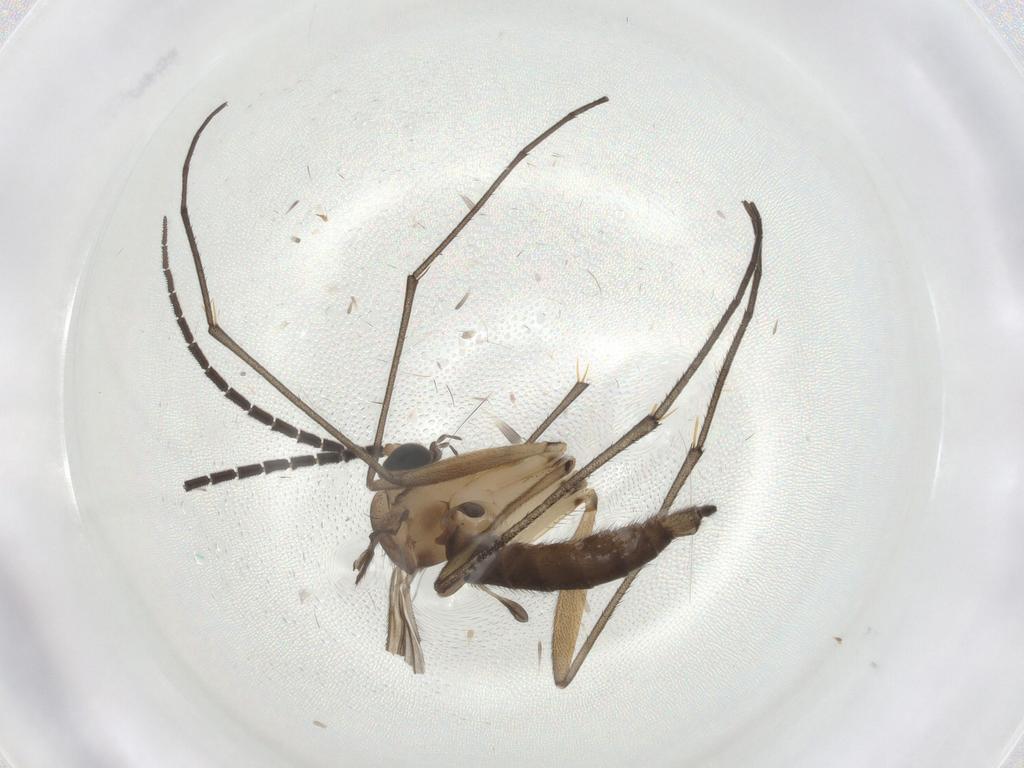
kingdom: Animalia
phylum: Arthropoda
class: Insecta
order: Diptera
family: Sciaridae
